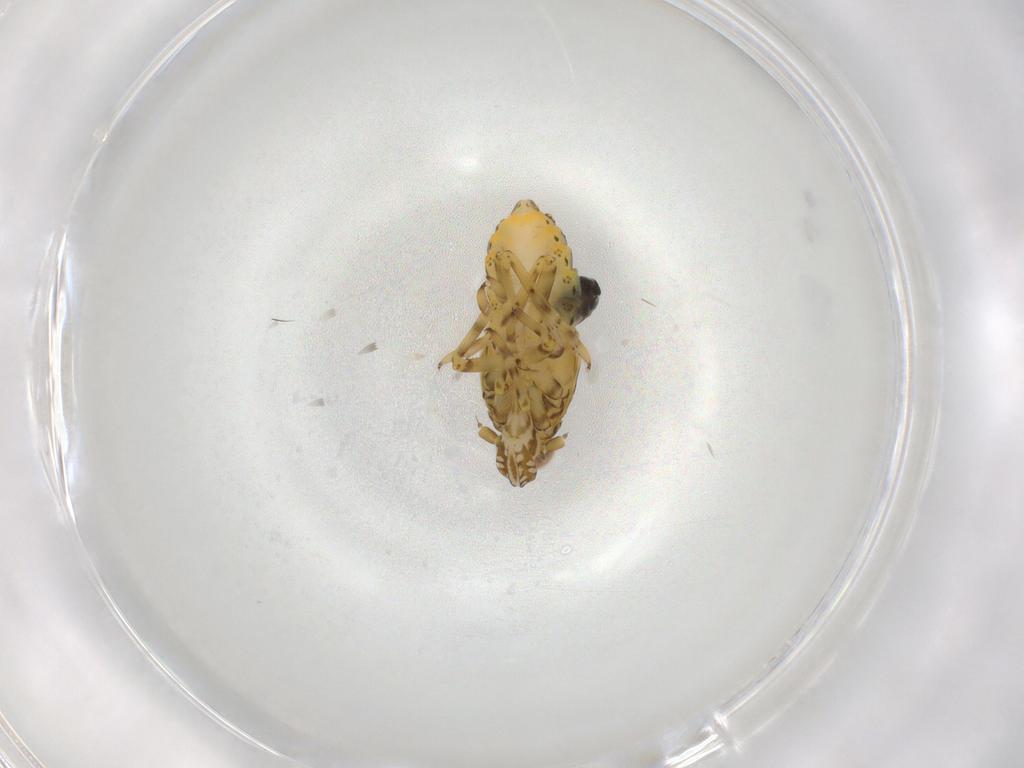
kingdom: Animalia
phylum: Arthropoda
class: Insecta
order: Hymenoptera
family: Dryinidae
